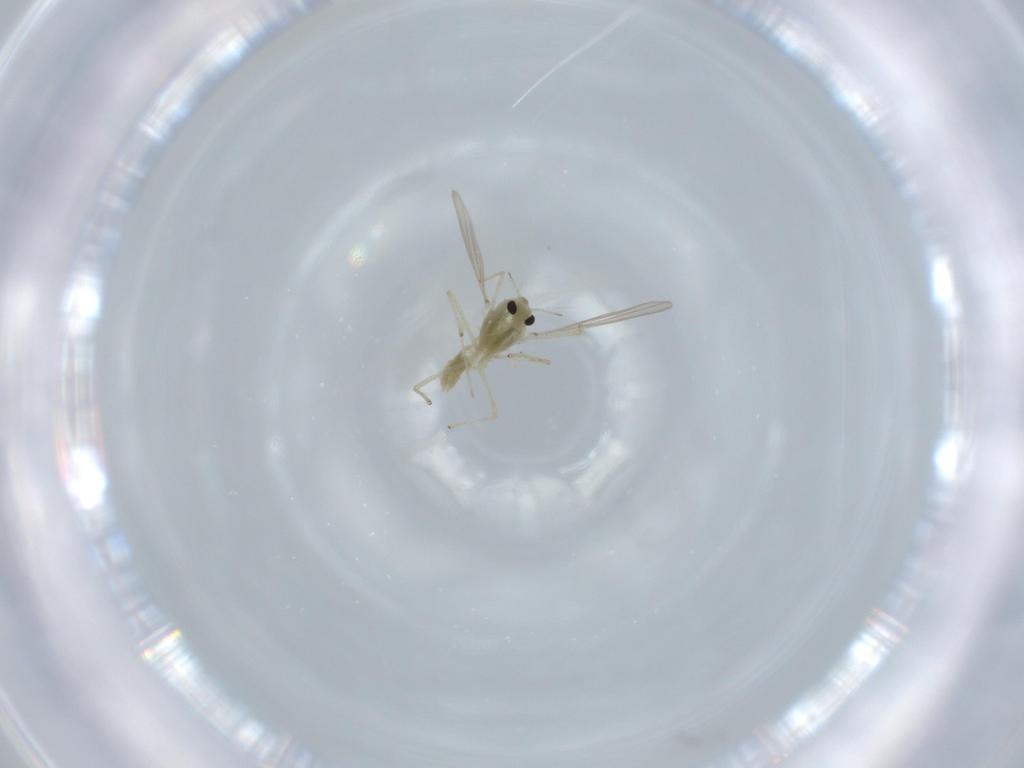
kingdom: Animalia
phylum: Arthropoda
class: Insecta
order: Diptera
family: Chironomidae
